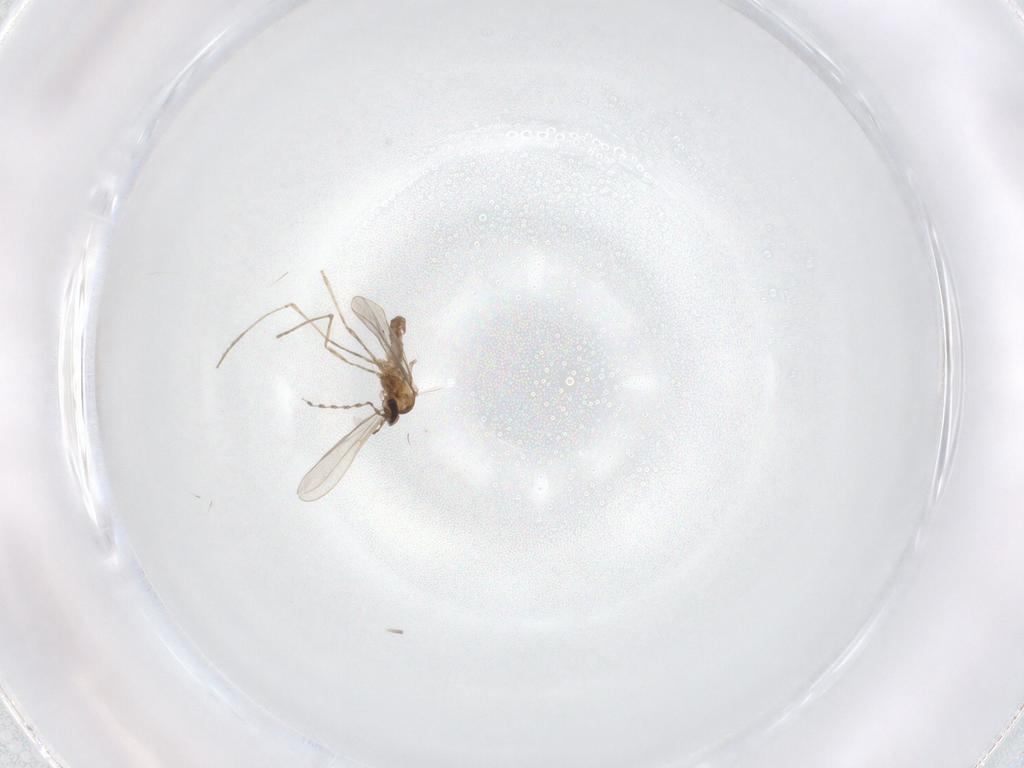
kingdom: Animalia
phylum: Arthropoda
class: Insecta
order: Diptera
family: Cecidomyiidae
